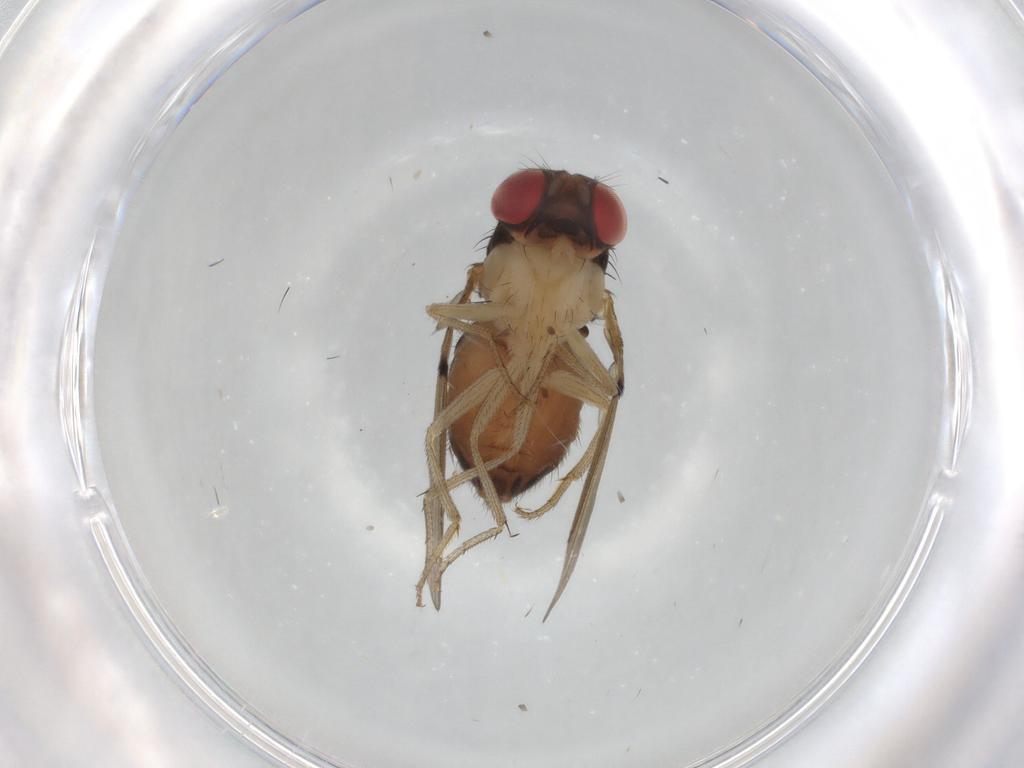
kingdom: Animalia
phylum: Arthropoda
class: Insecta
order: Diptera
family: Drosophilidae
